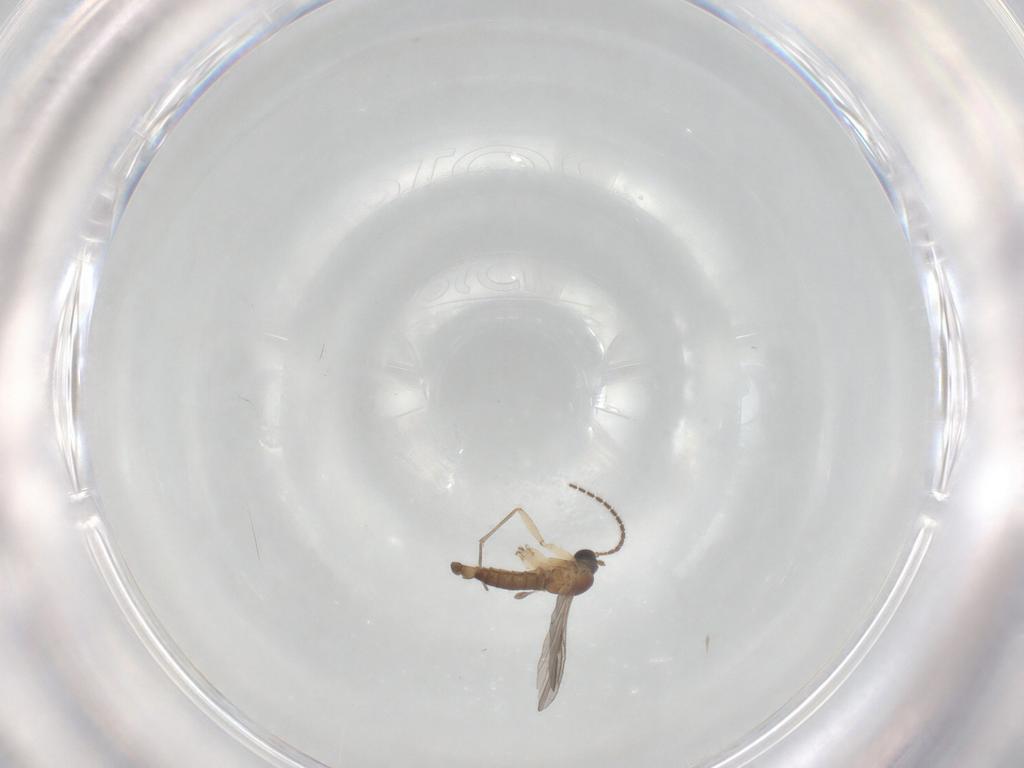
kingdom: Animalia
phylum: Arthropoda
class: Insecta
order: Diptera
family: Sciaridae
